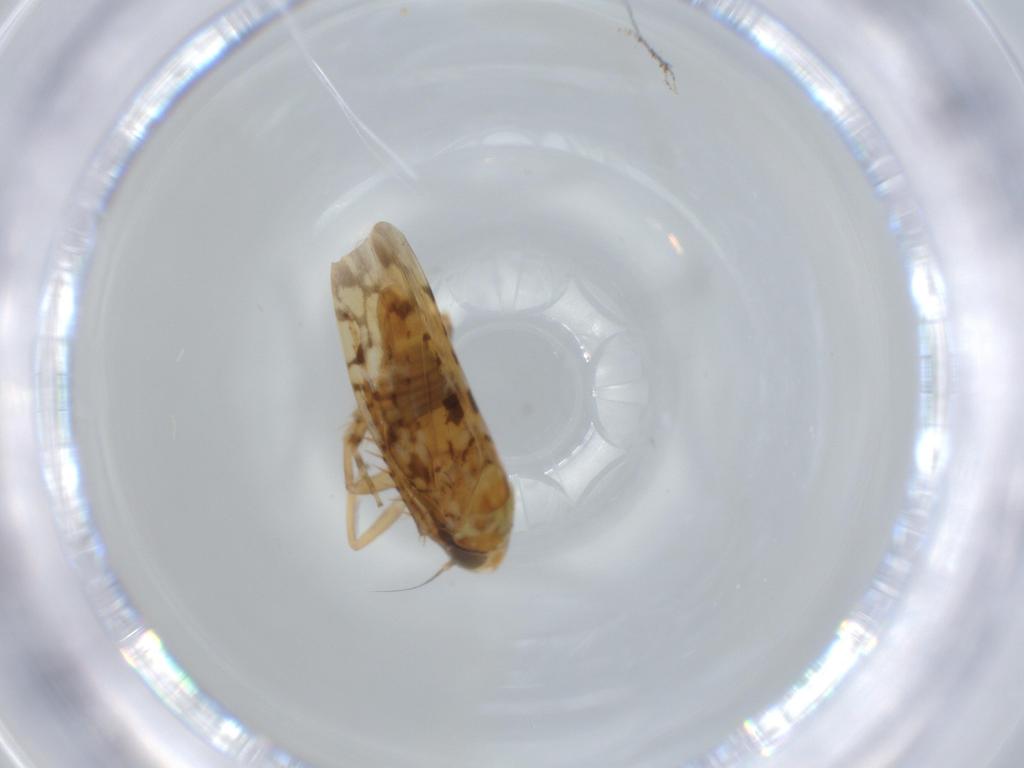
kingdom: Animalia
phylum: Arthropoda
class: Insecta
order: Hemiptera
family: Cicadellidae
